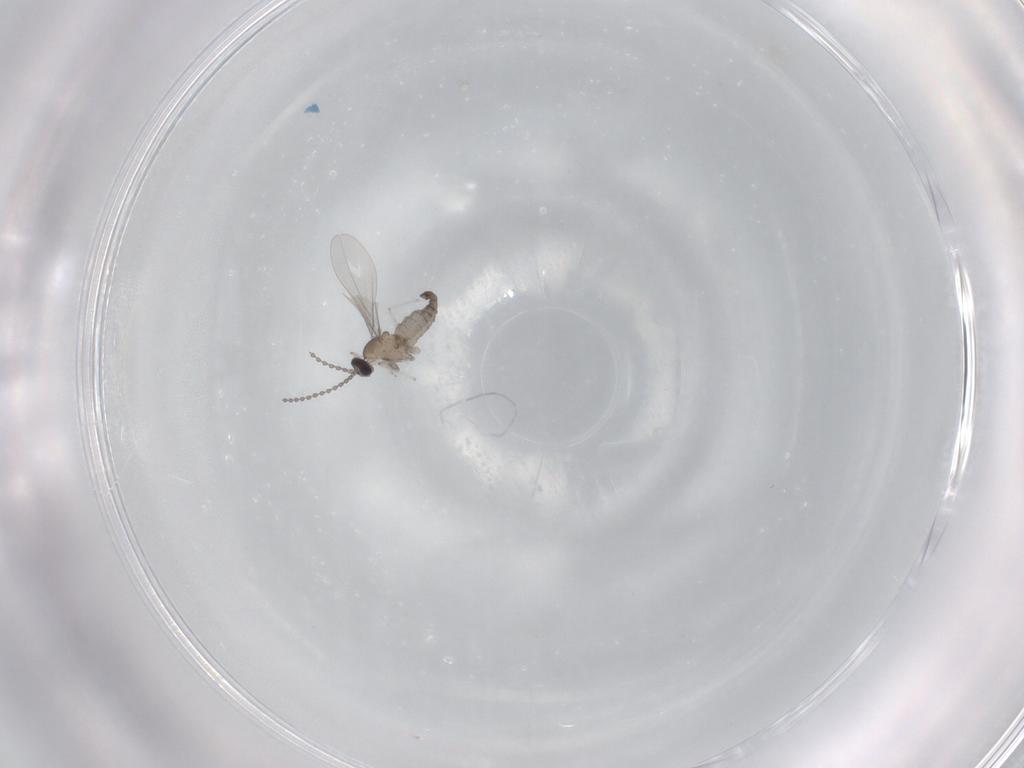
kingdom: Animalia
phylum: Arthropoda
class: Insecta
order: Diptera
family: Cecidomyiidae
